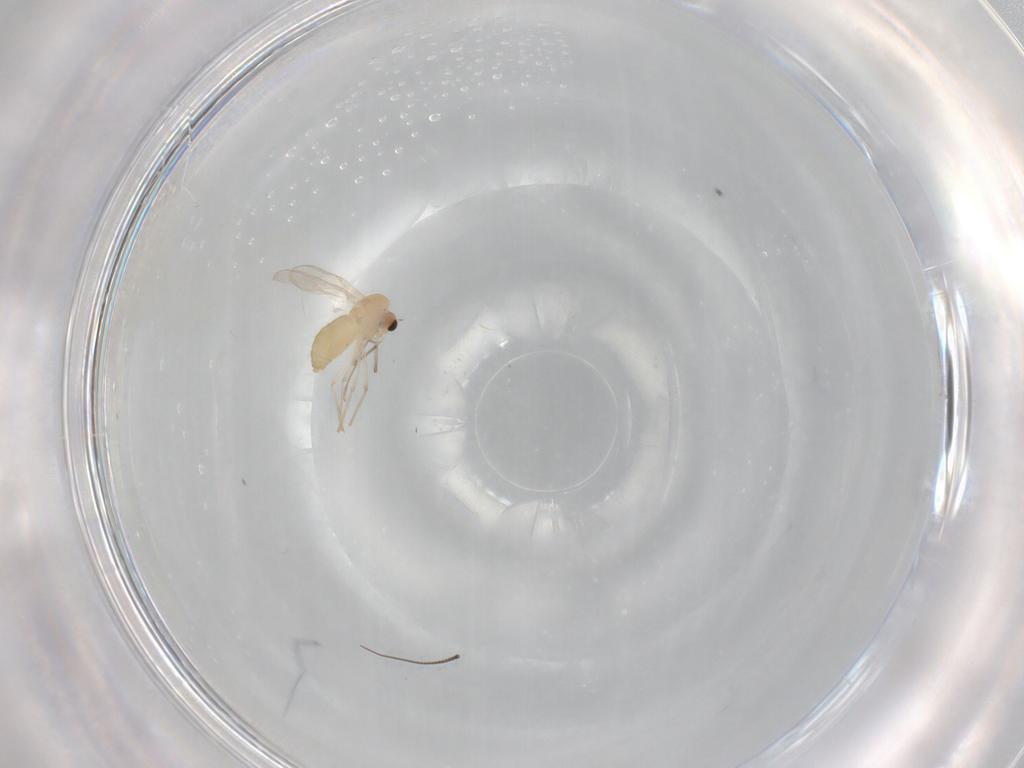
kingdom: Animalia
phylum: Arthropoda
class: Insecta
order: Diptera
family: Chironomidae
